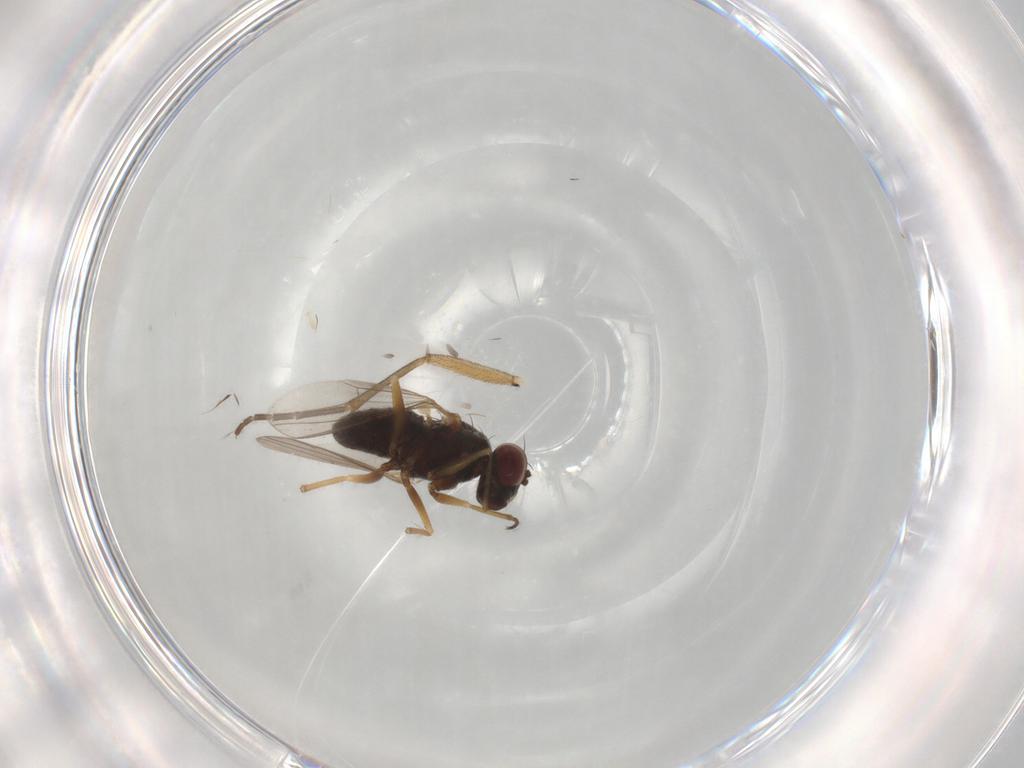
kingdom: Animalia
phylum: Arthropoda
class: Insecta
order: Diptera
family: Dolichopodidae
